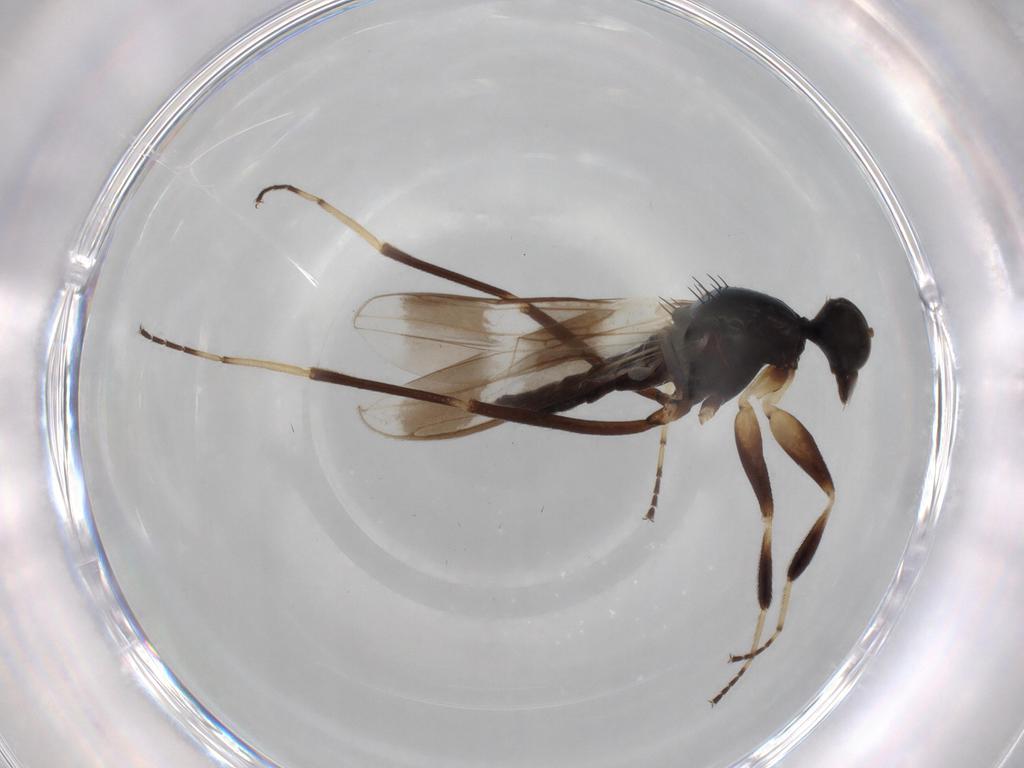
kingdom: Animalia
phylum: Arthropoda
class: Insecta
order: Diptera
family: Hybotidae
